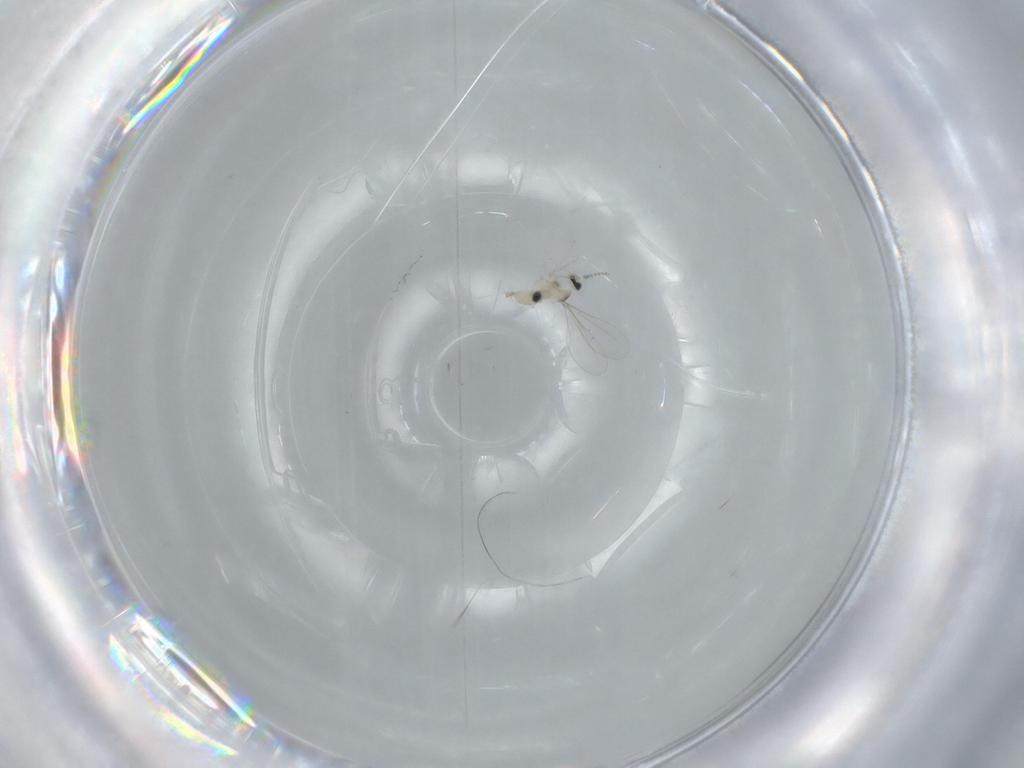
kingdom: Animalia
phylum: Arthropoda
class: Insecta
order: Diptera
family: Cecidomyiidae
